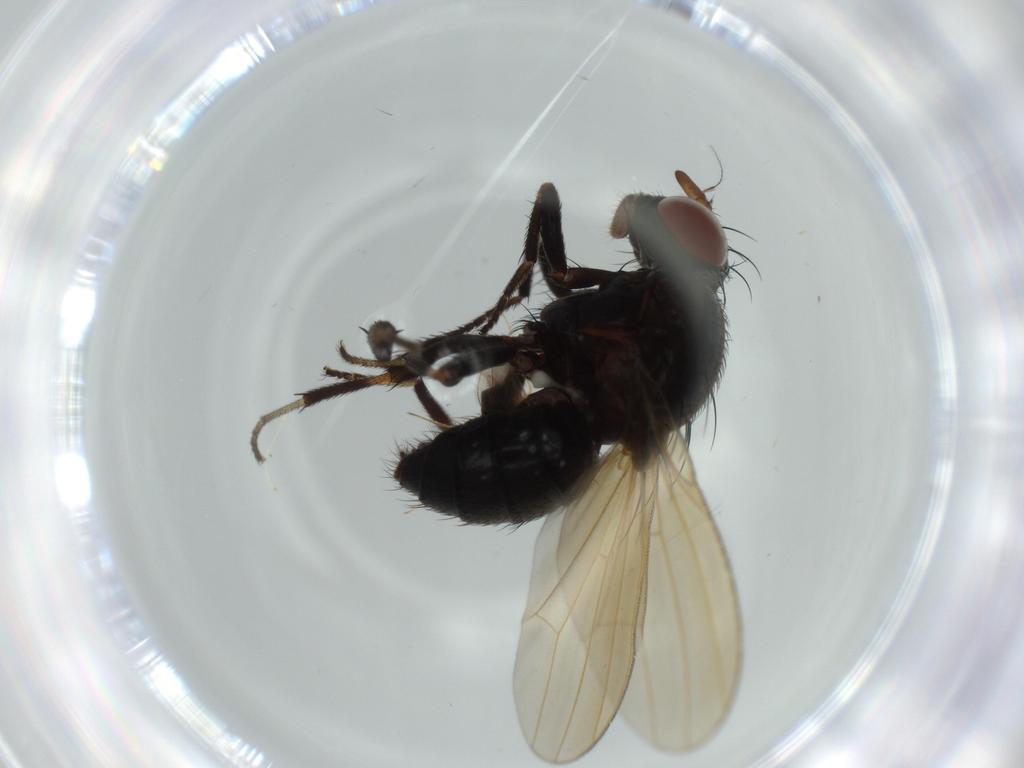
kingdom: Animalia
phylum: Arthropoda
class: Insecta
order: Diptera
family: Lauxaniidae
